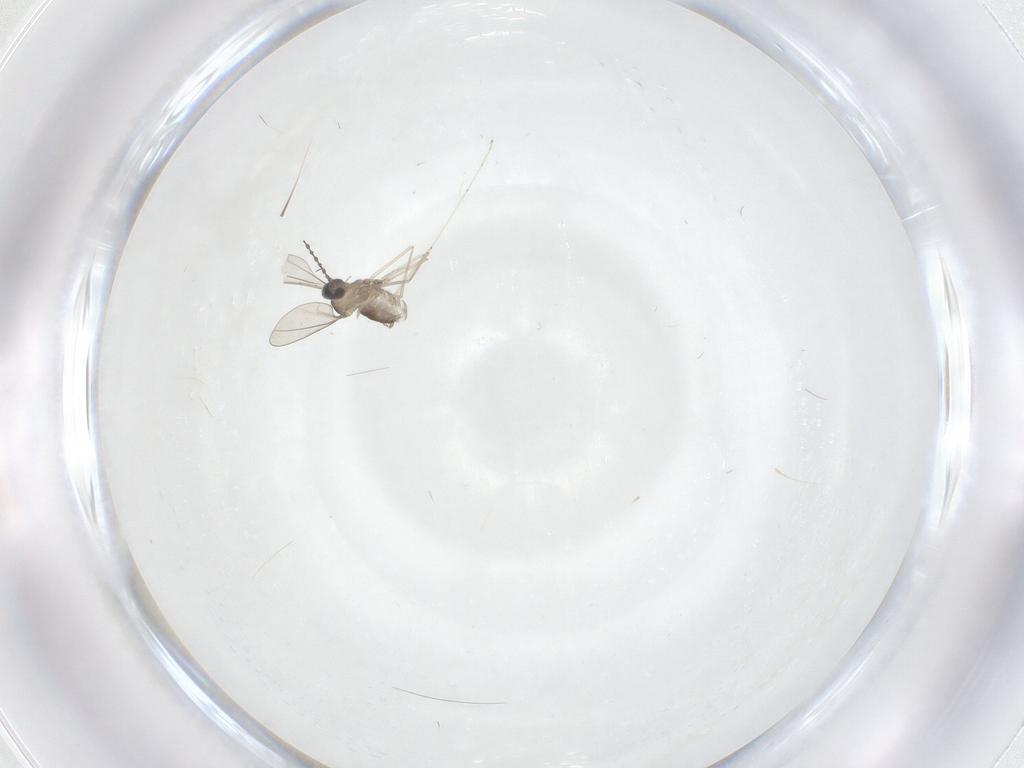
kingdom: Animalia
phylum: Arthropoda
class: Insecta
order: Diptera
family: Cecidomyiidae
